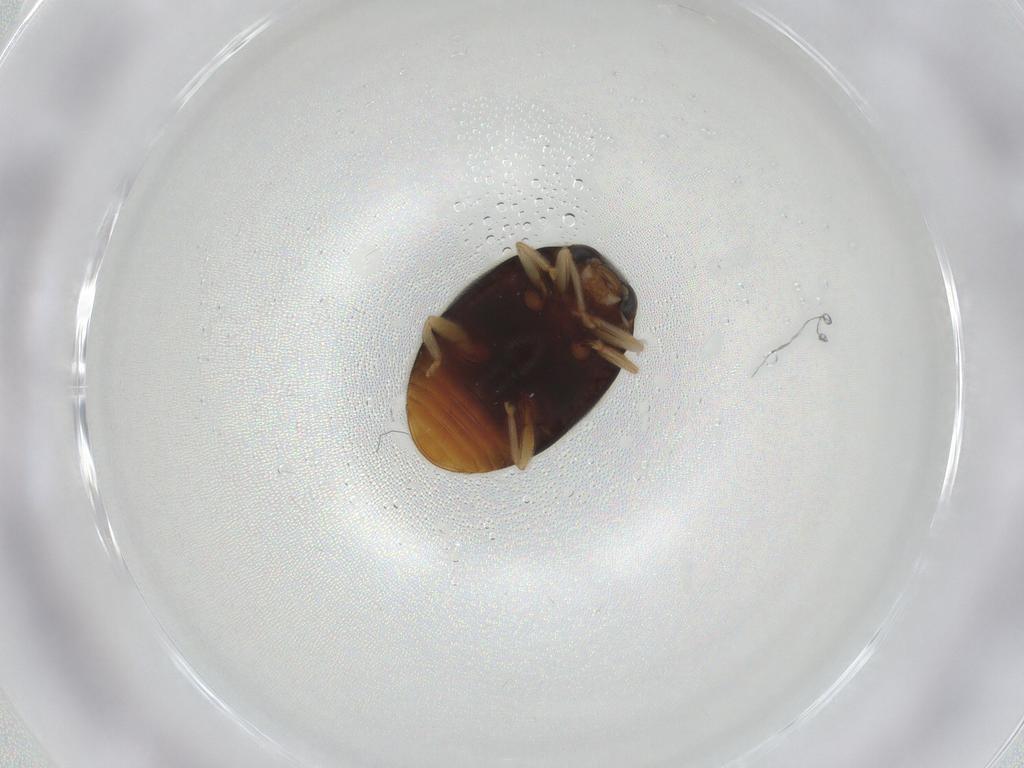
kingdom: Animalia
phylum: Arthropoda
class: Insecta
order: Coleoptera
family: Coccinellidae
